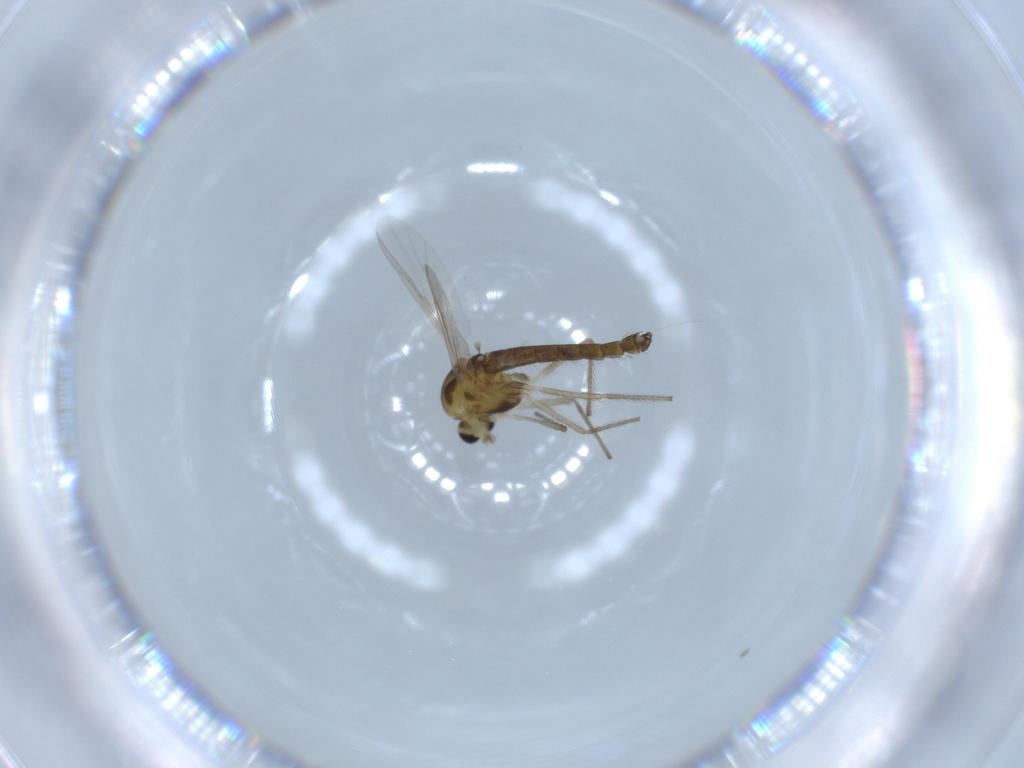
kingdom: Animalia
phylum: Arthropoda
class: Insecta
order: Diptera
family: Chironomidae
